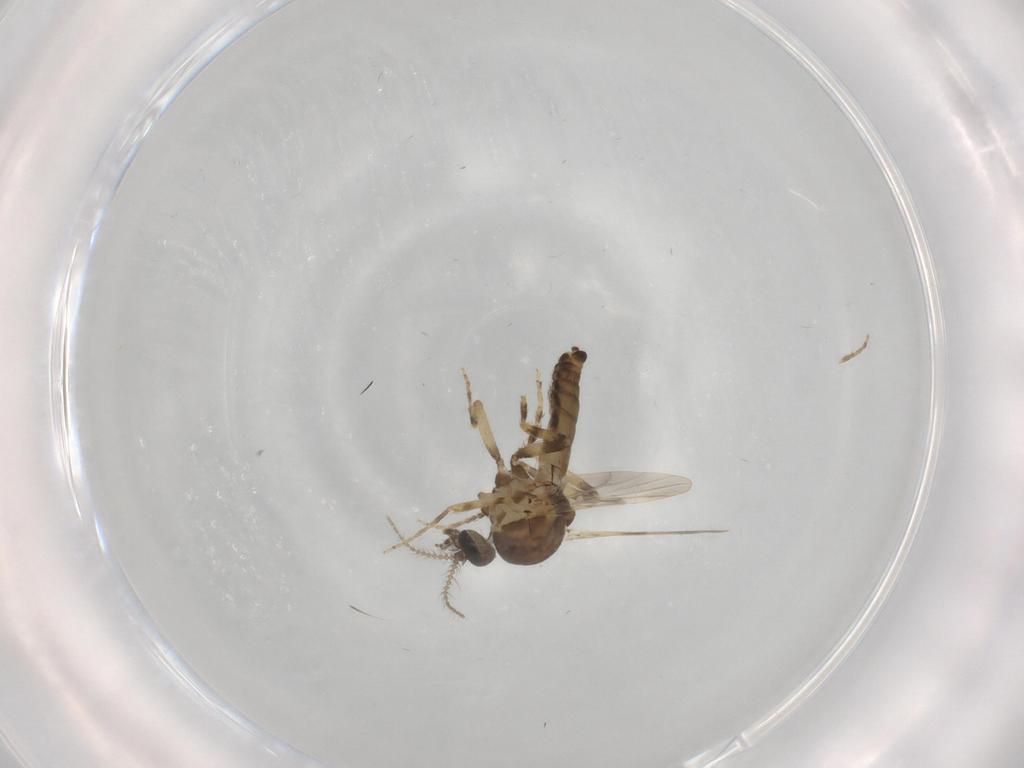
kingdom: Animalia
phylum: Arthropoda
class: Insecta
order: Diptera
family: Ceratopogonidae
